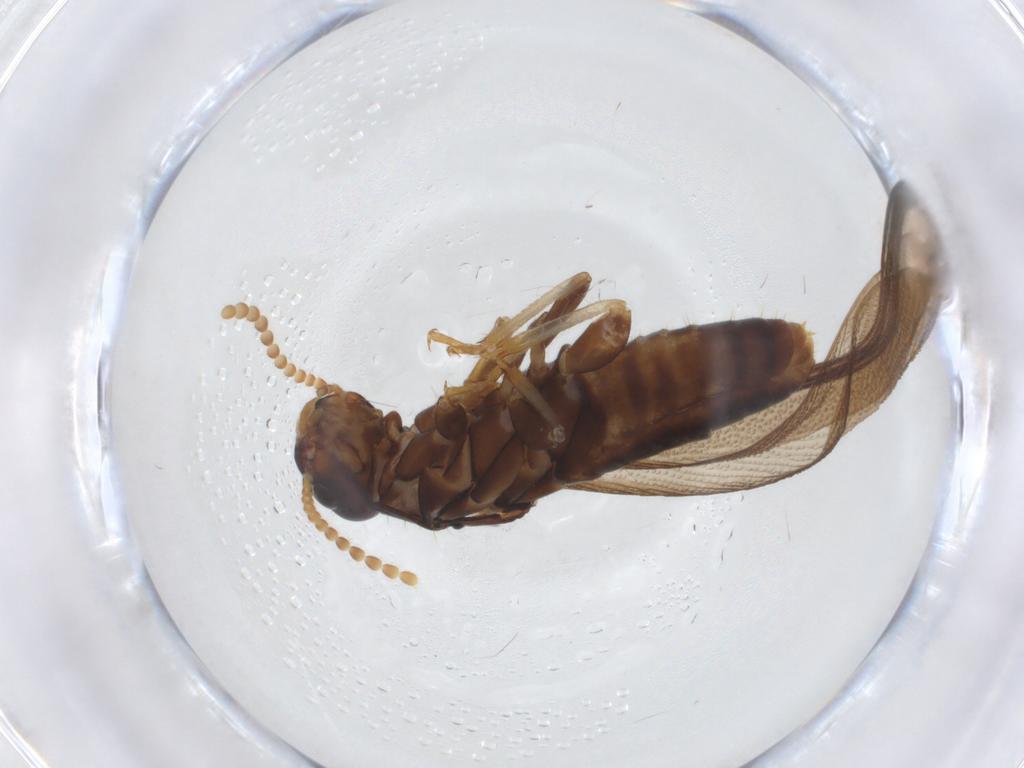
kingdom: Animalia
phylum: Arthropoda
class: Insecta
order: Blattodea
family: Kalotermitidae
